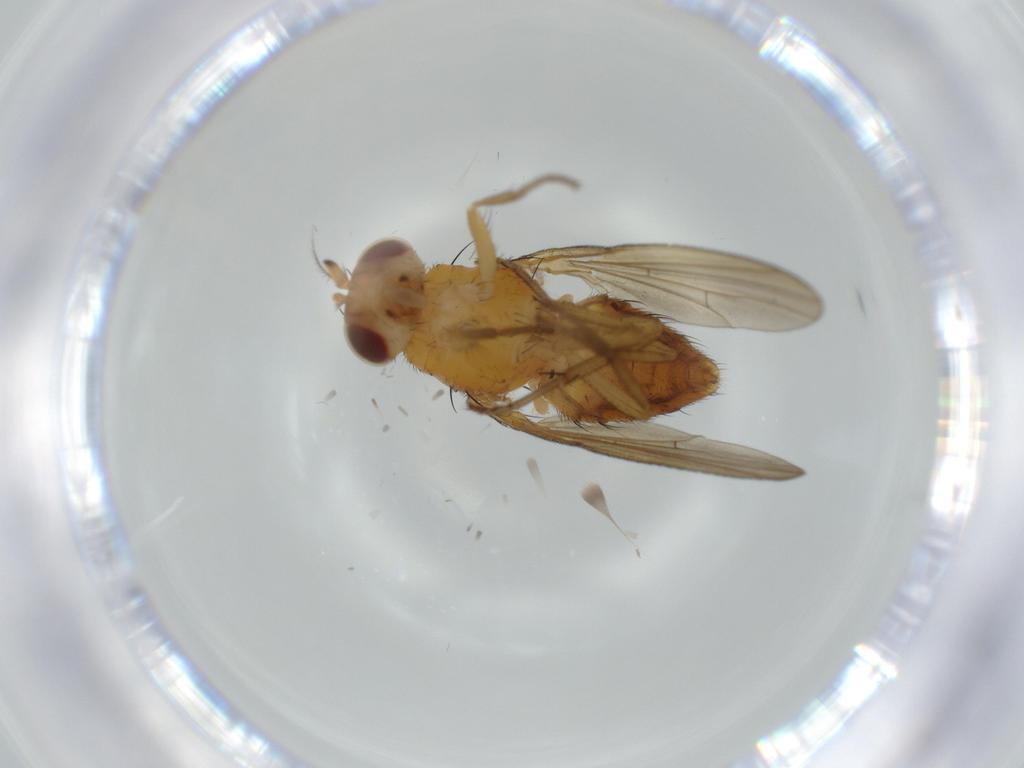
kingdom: Animalia
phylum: Arthropoda
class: Insecta
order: Diptera
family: Lauxaniidae
